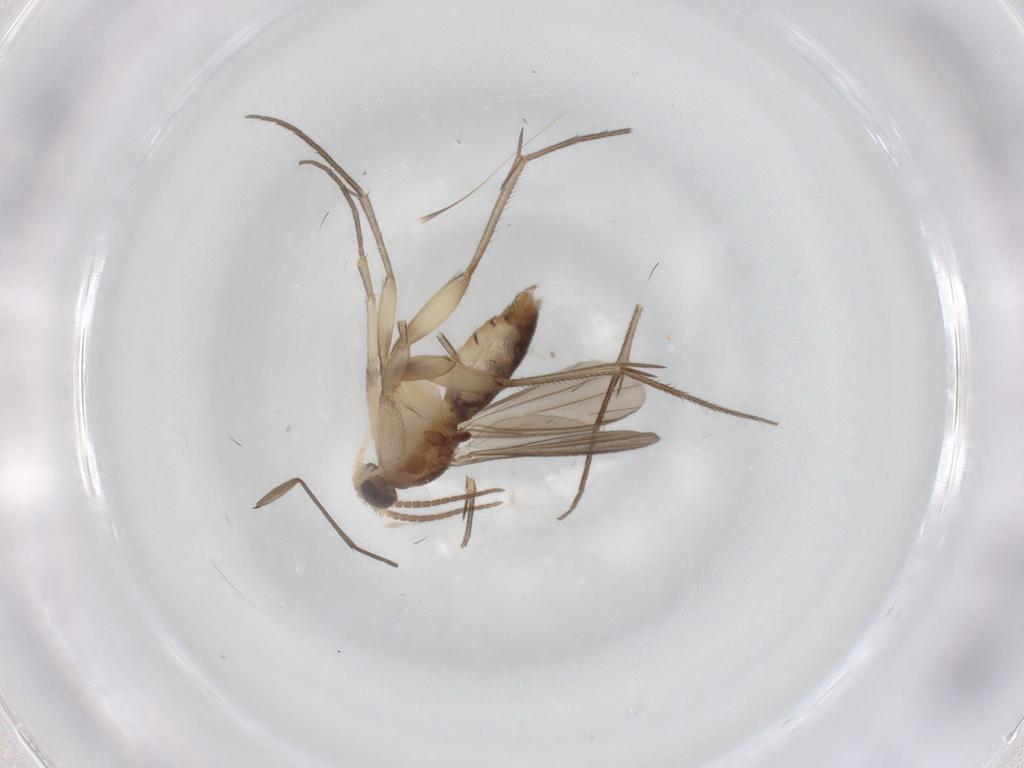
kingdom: Animalia
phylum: Arthropoda
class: Insecta
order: Diptera
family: Mycetophilidae
